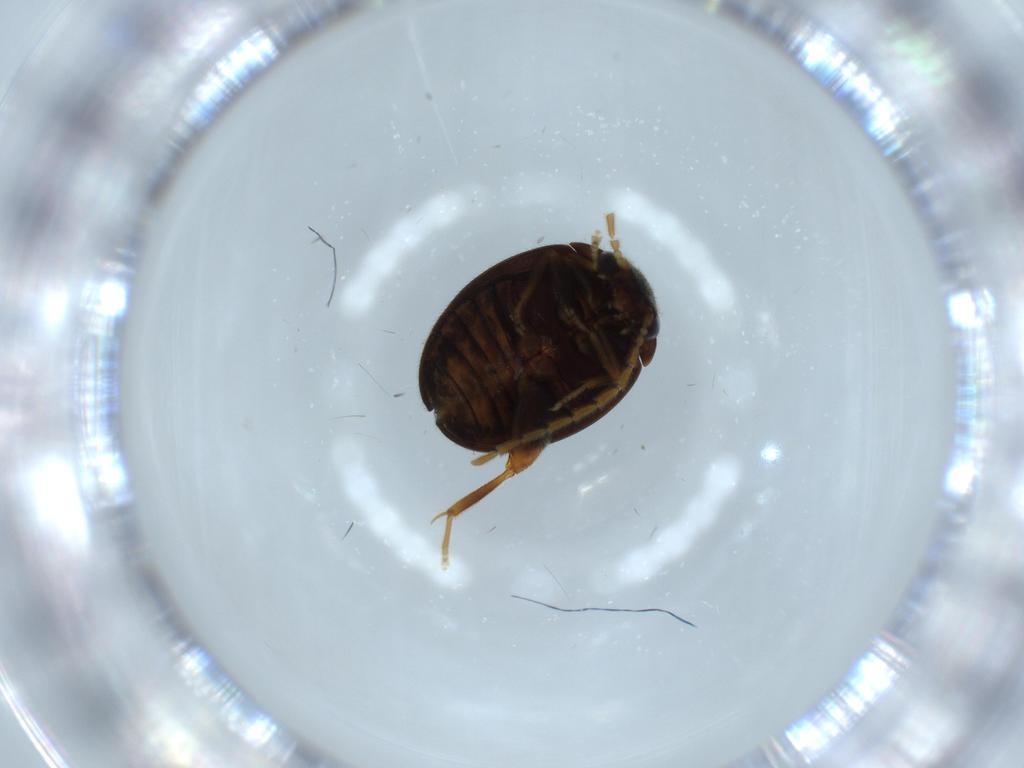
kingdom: Animalia
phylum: Arthropoda
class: Insecta
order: Coleoptera
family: Scirtidae
